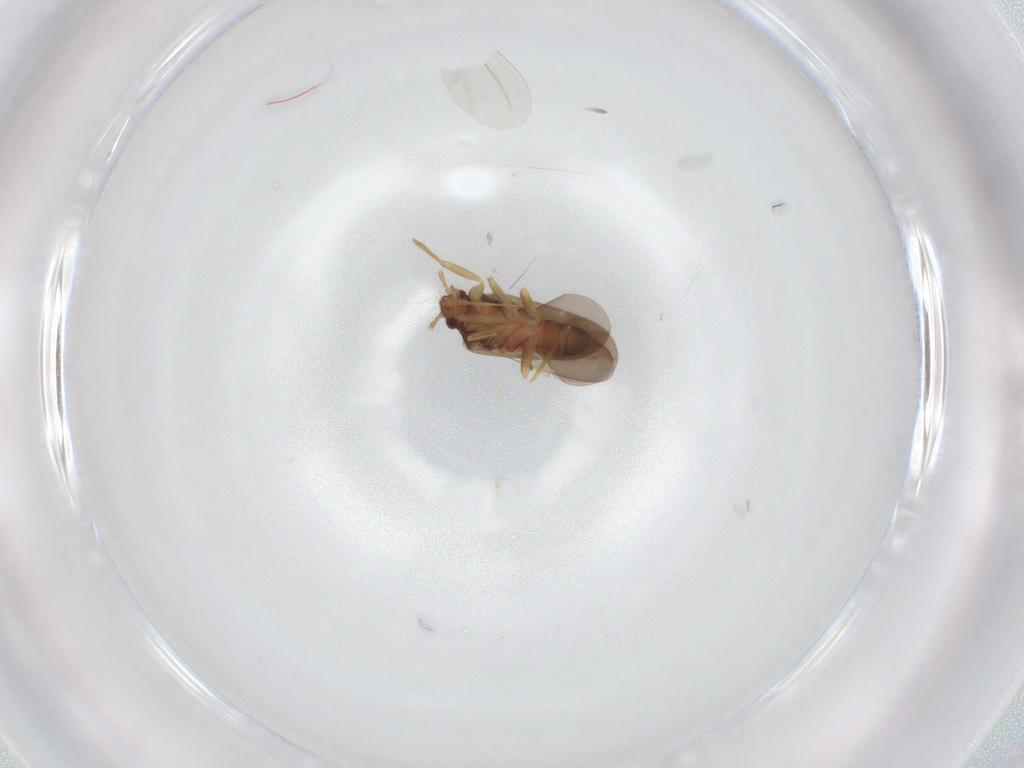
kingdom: Animalia
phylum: Arthropoda
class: Insecta
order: Hemiptera
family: Ceratocombidae
